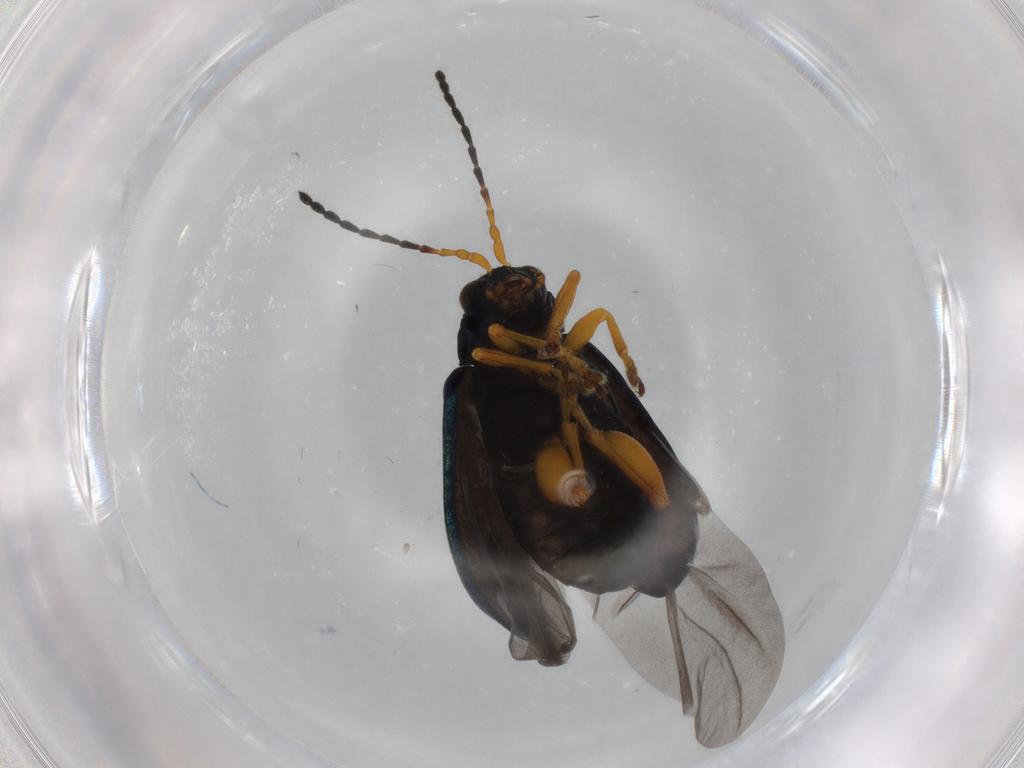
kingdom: Animalia
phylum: Arthropoda
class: Insecta
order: Coleoptera
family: Chrysomelidae
